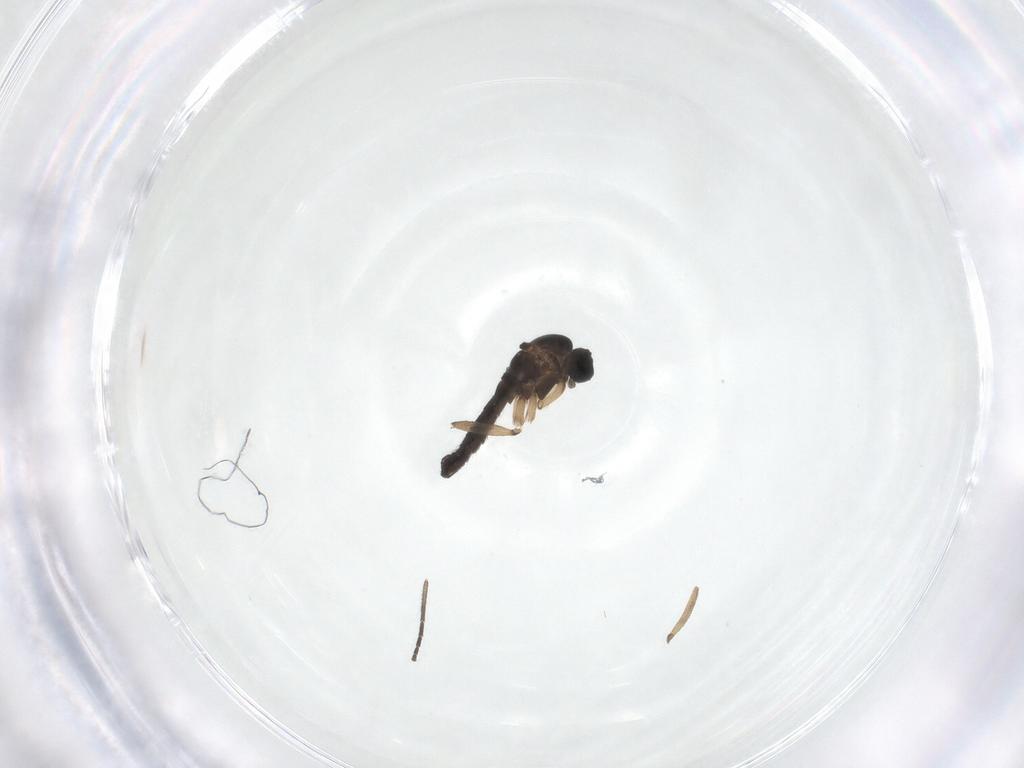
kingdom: Animalia
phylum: Arthropoda
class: Insecta
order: Diptera
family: Sciaridae
